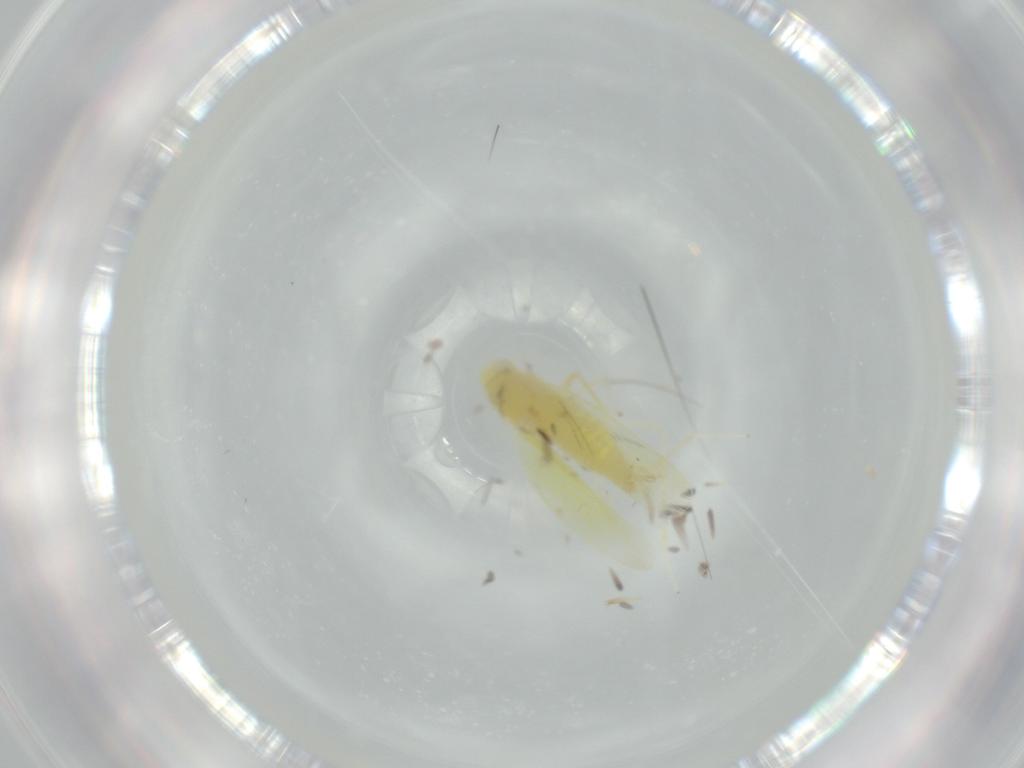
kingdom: Animalia
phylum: Arthropoda
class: Insecta
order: Hemiptera
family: Cicadellidae
